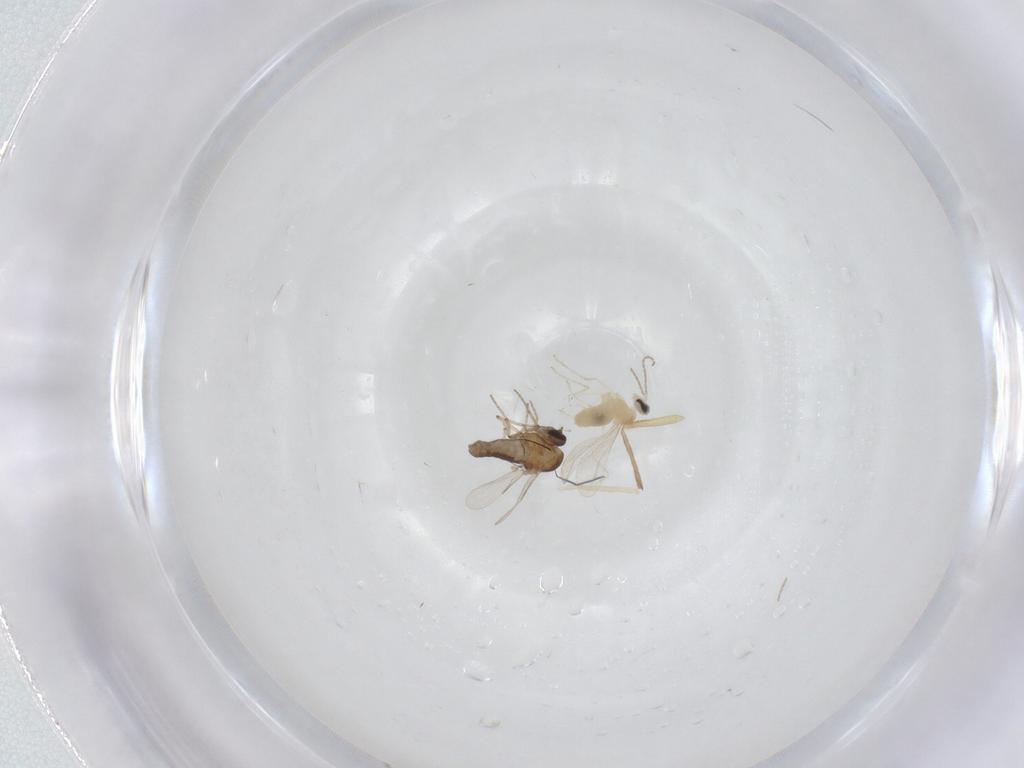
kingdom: Animalia
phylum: Arthropoda
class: Insecta
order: Diptera
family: Cecidomyiidae
